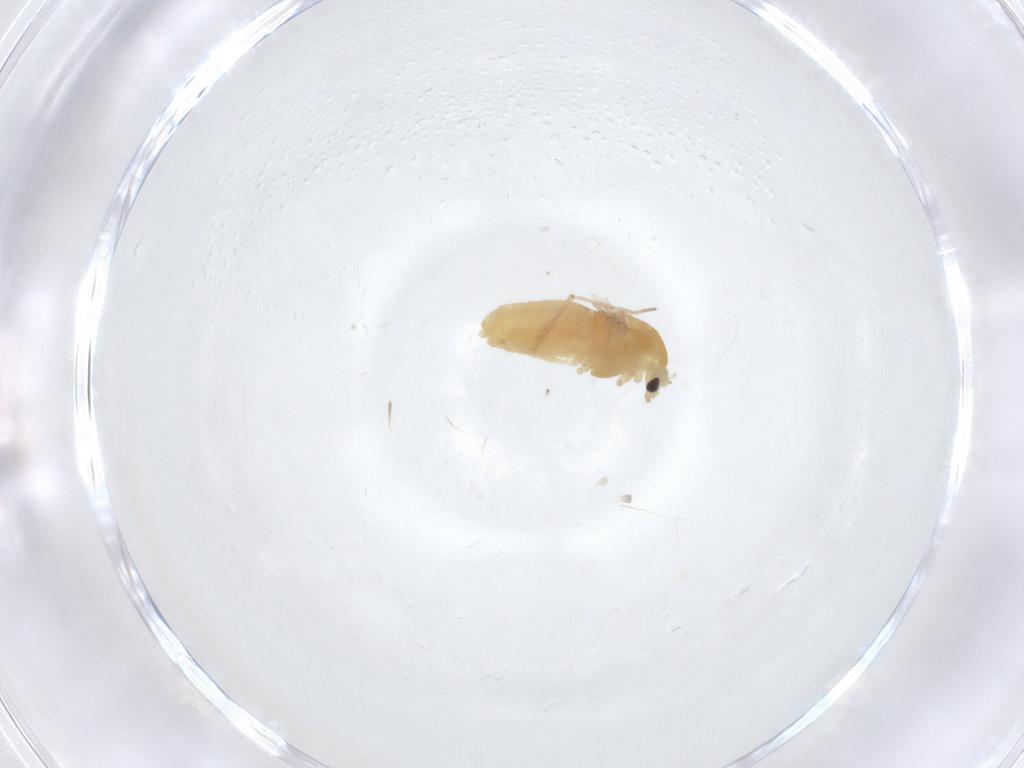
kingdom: Animalia
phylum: Arthropoda
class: Insecta
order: Diptera
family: Chironomidae
